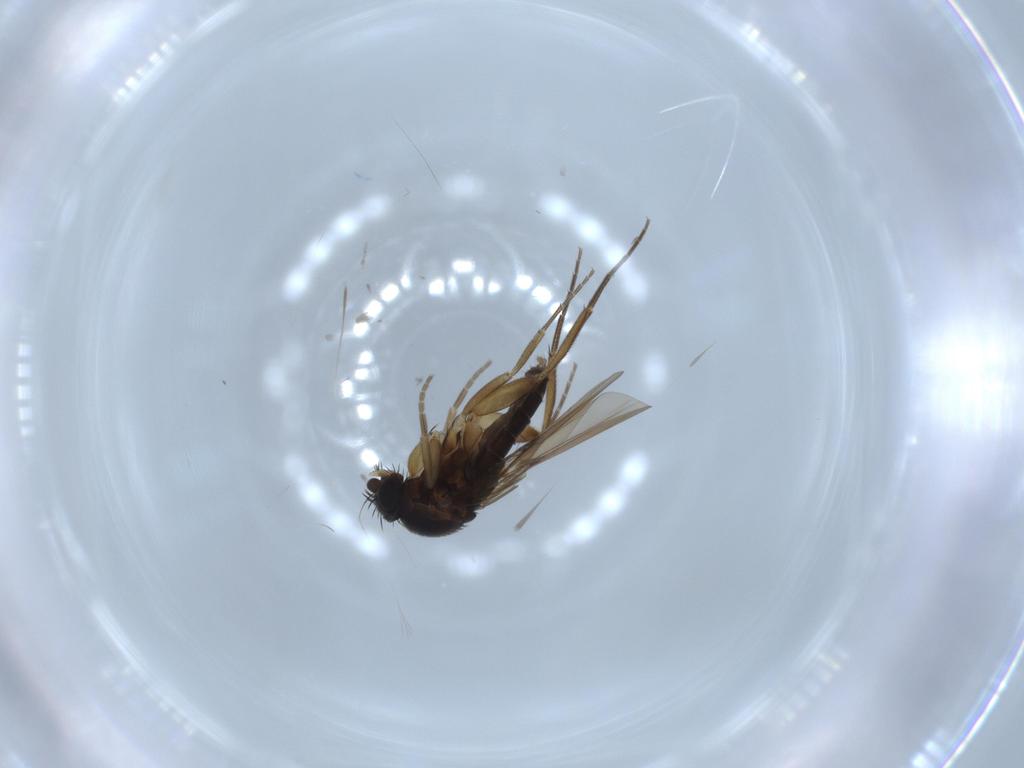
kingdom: Animalia
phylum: Arthropoda
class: Insecta
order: Diptera
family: Phoridae
